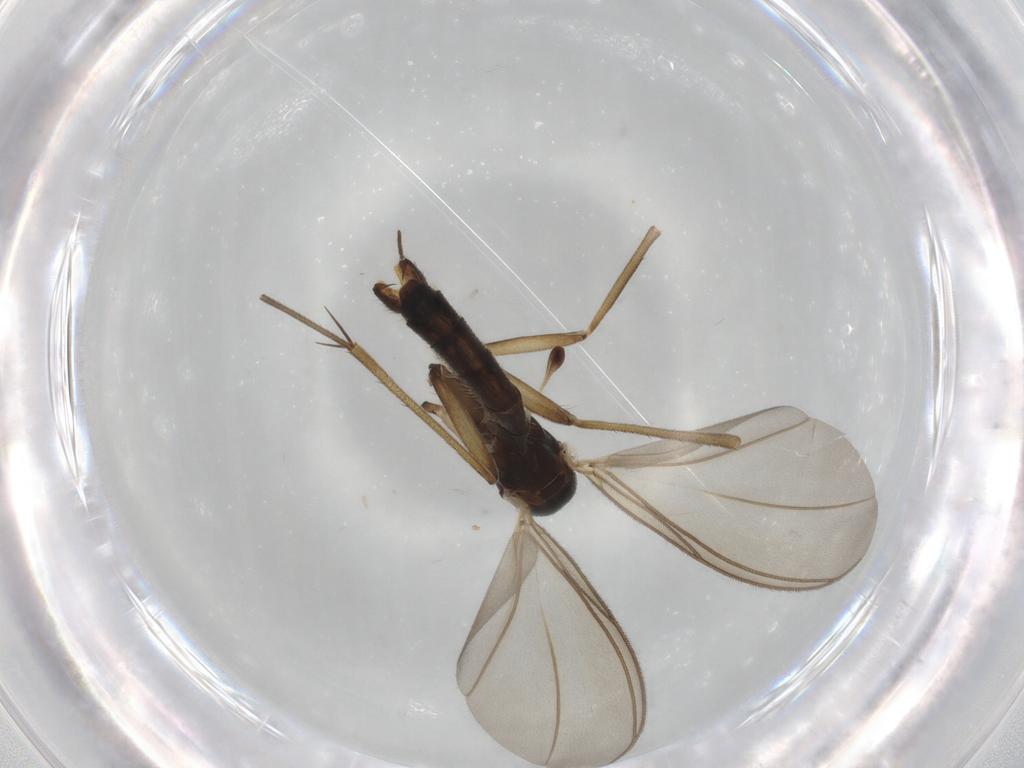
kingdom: Animalia
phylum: Arthropoda
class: Insecta
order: Diptera
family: Mycetophilidae
